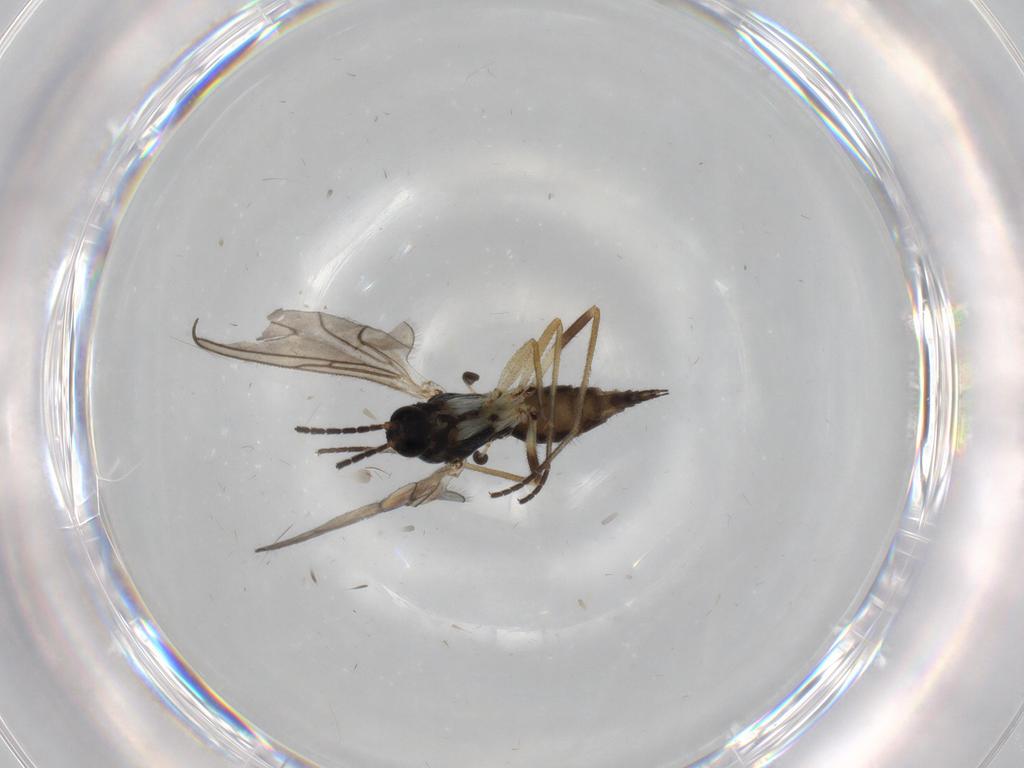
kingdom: Animalia
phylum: Arthropoda
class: Insecta
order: Diptera
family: Sciaridae
